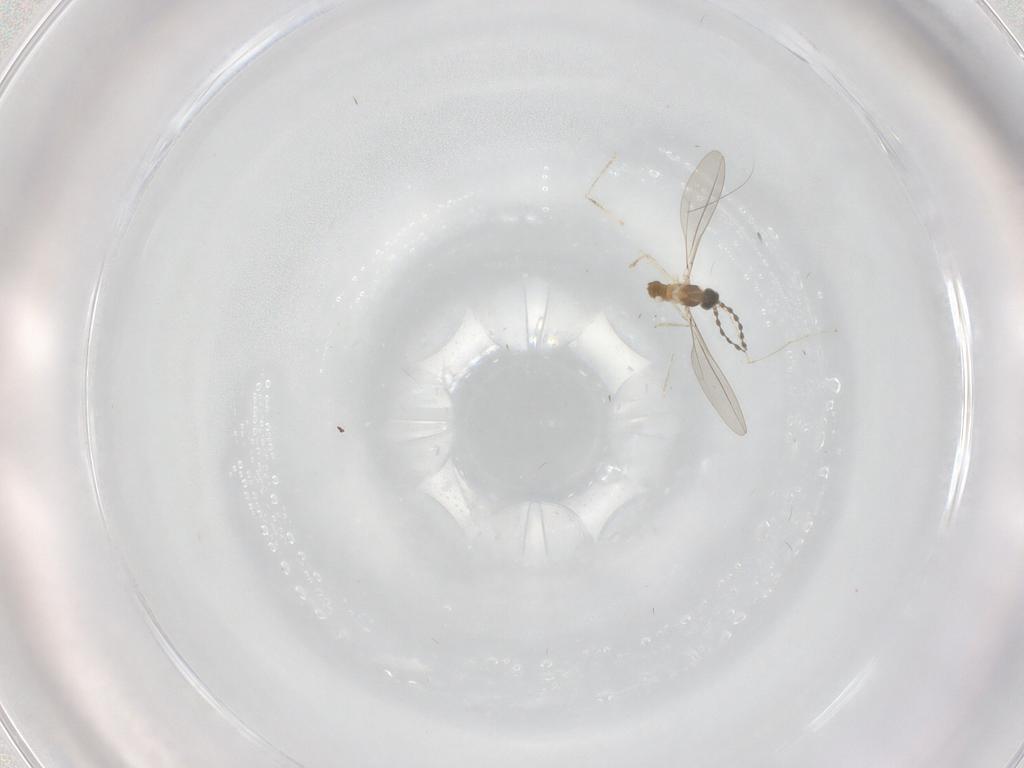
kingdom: Animalia
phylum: Arthropoda
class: Insecta
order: Diptera
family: Cecidomyiidae
